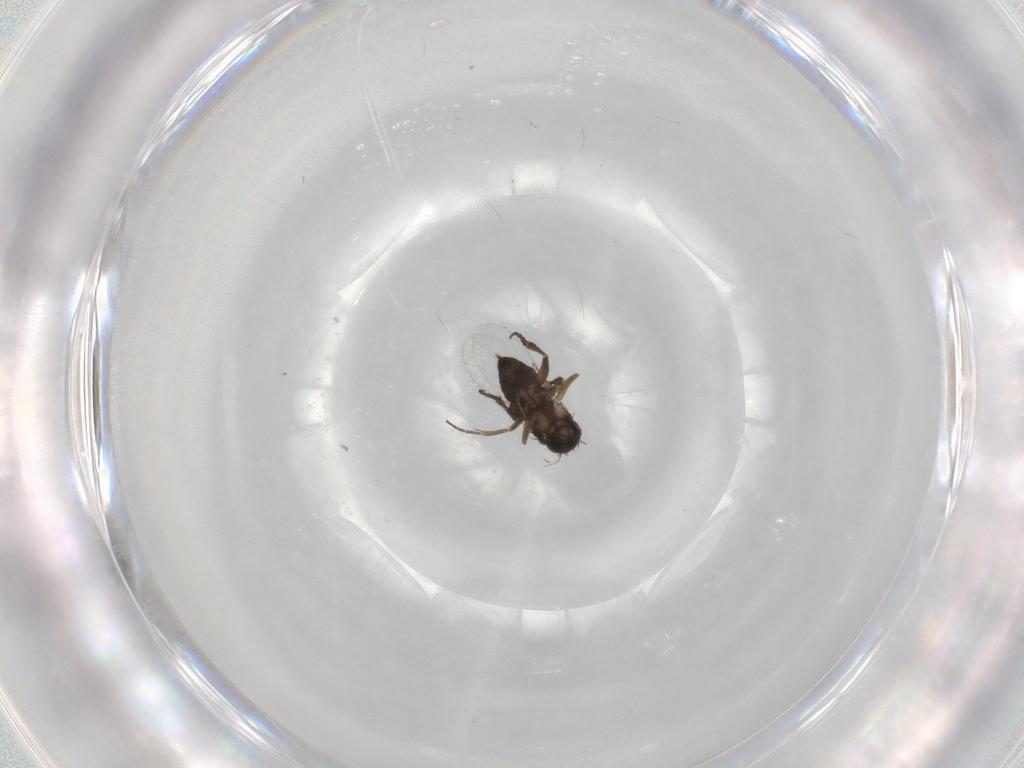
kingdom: Animalia
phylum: Arthropoda
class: Insecta
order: Diptera
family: Phoridae
